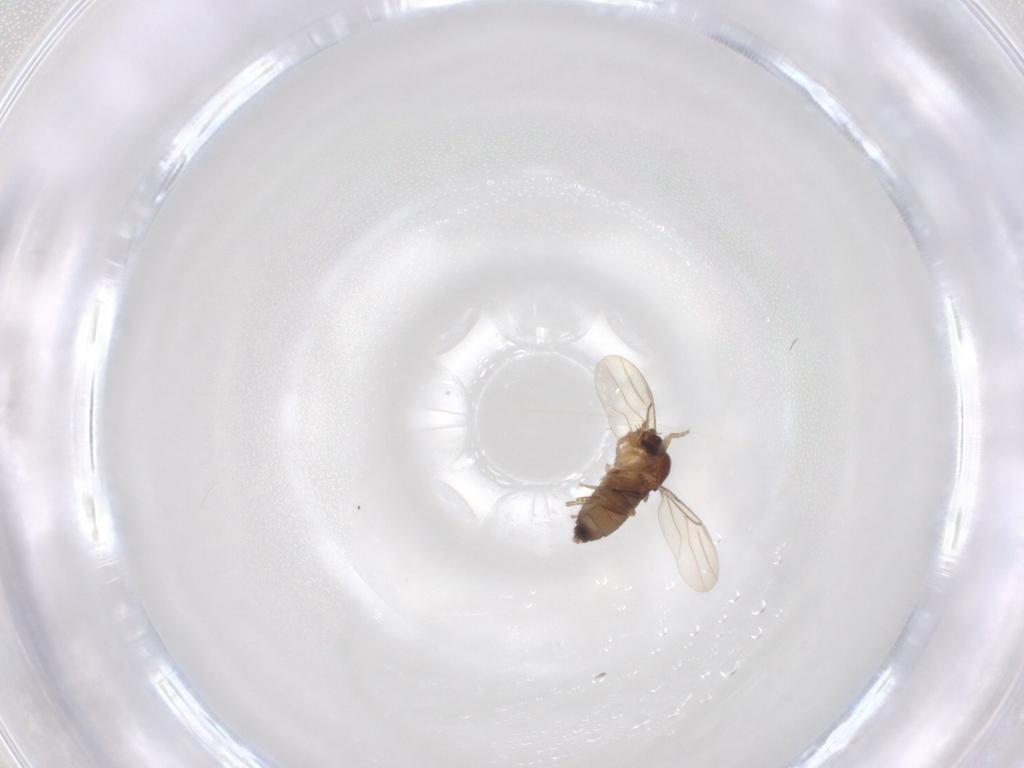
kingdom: Animalia
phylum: Arthropoda
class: Insecta
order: Diptera
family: Phoridae
